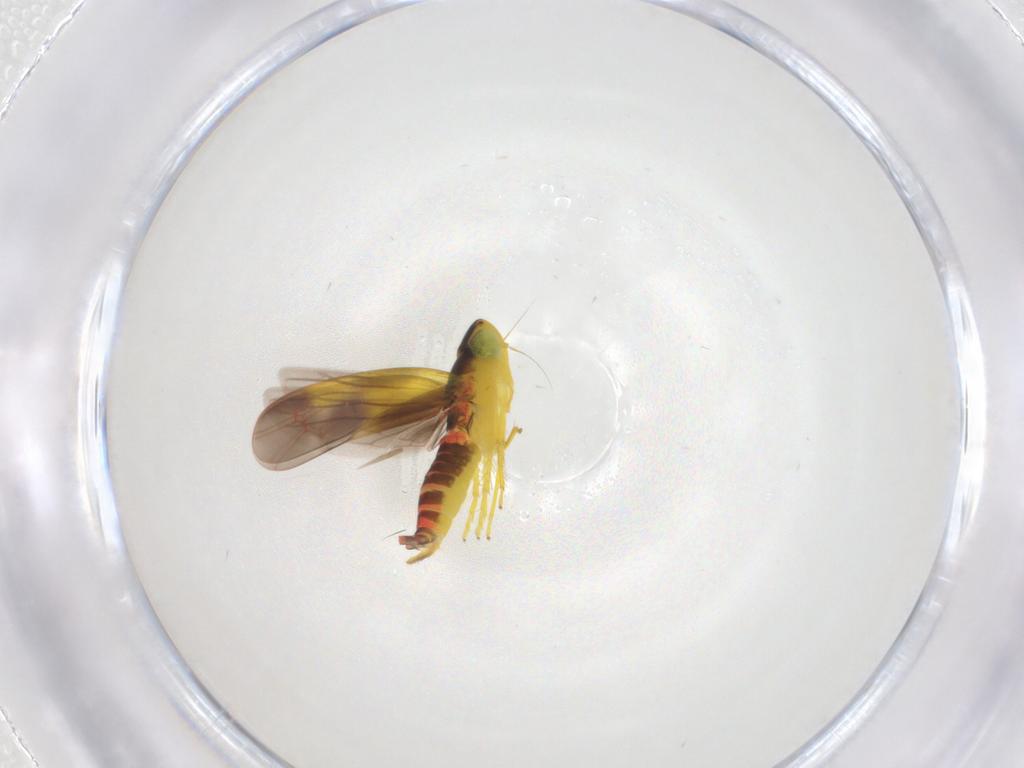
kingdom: Animalia
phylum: Arthropoda
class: Insecta
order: Hemiptera
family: Cicadellidae
